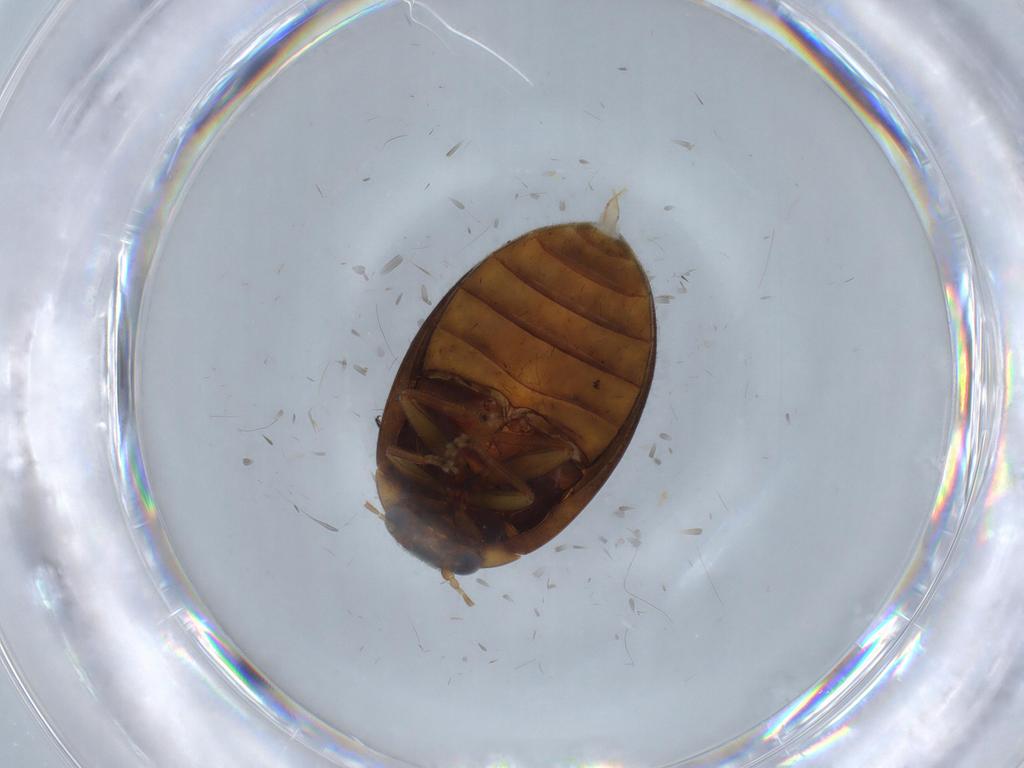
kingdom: Animalia
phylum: Arthropoda
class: Insecta
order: Coleoptera
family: Scirtidae
